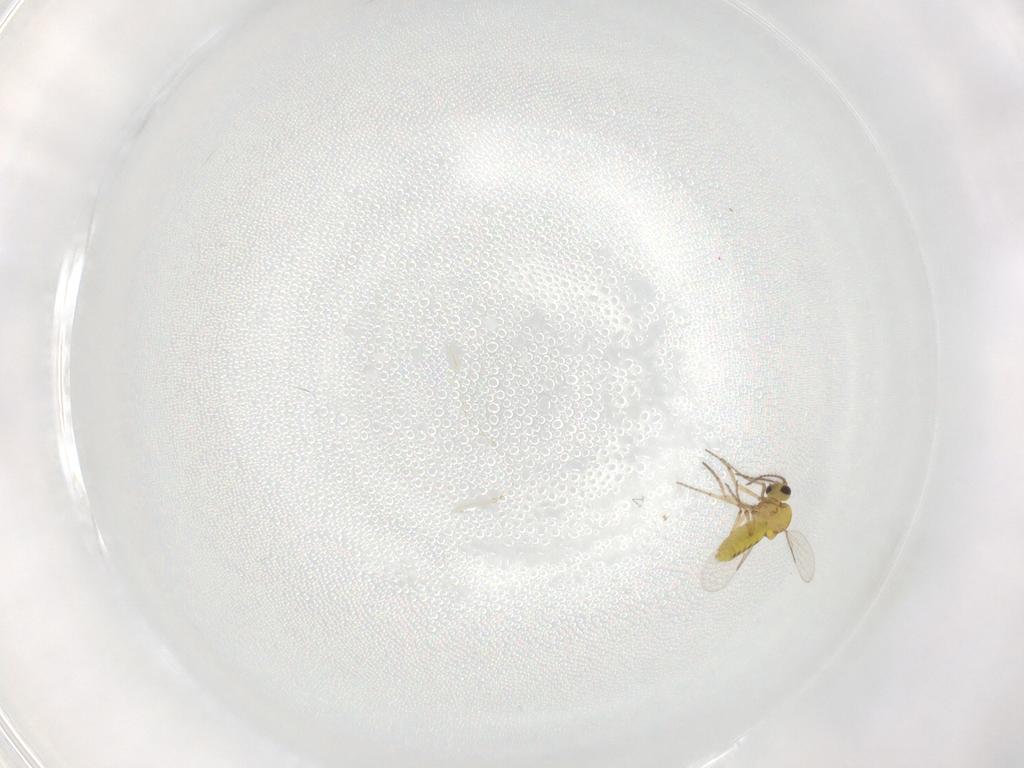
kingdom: Animalia
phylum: Arthropoda
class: Insecta
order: Diptera
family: Ceratopogonidae
